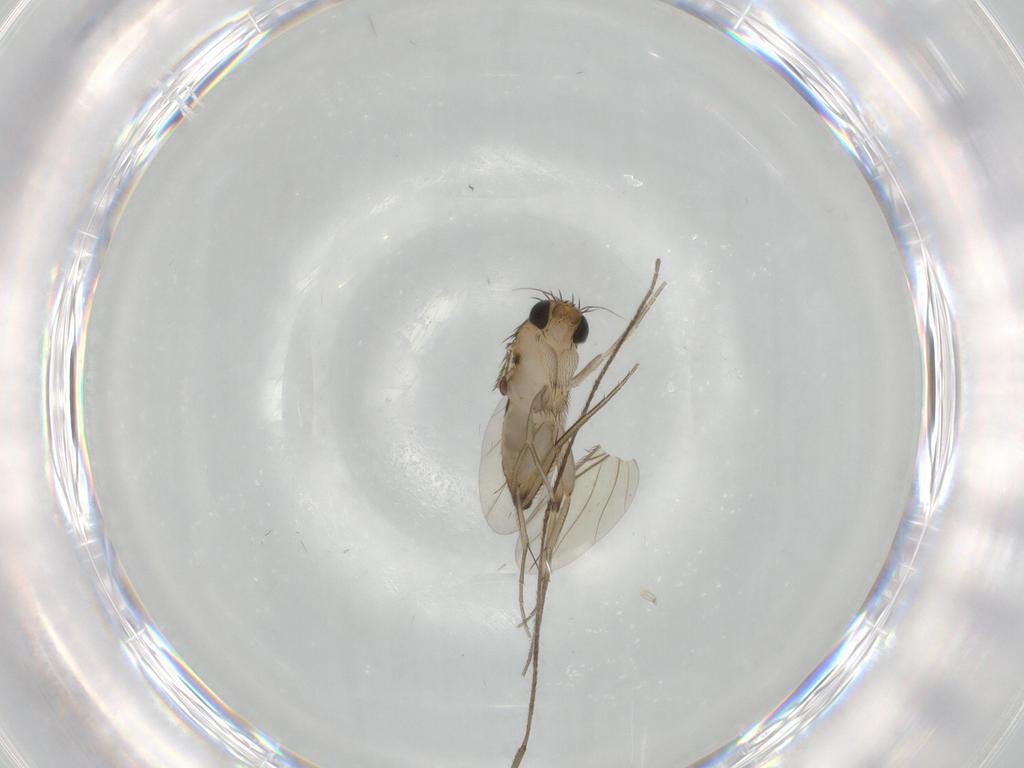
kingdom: Animalia
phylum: Arthropoda
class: Insecta
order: Diptera
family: Limoniidae
